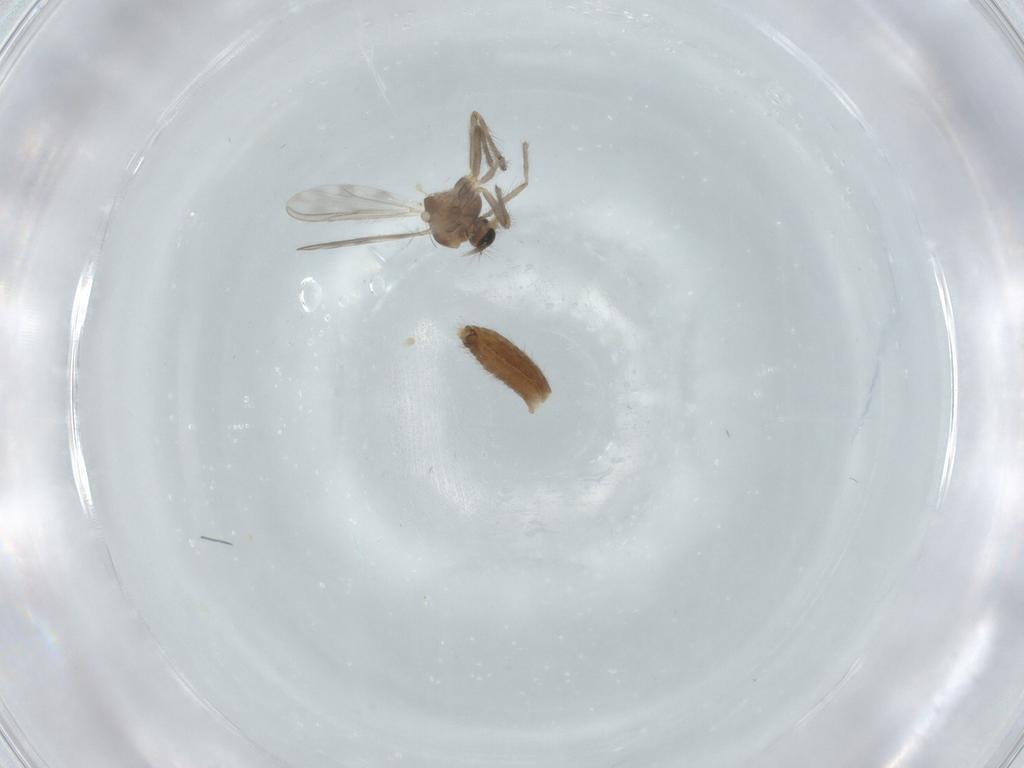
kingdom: Animalia
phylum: Arthropoda
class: Insecta
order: Diptera
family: Chironomidae
